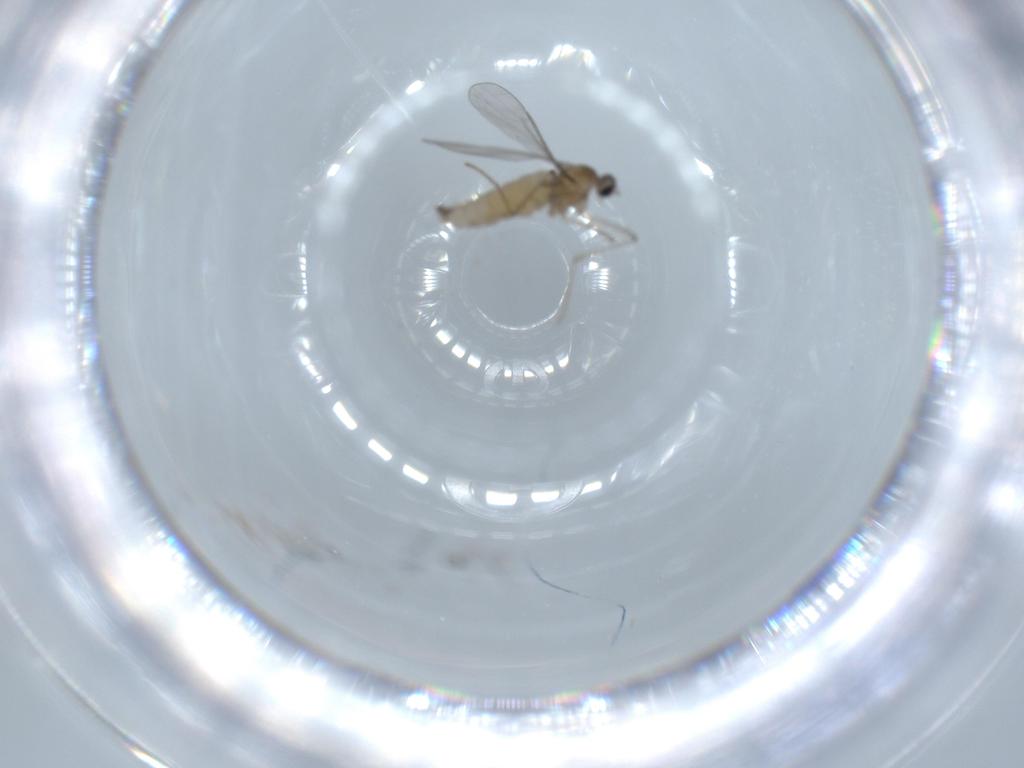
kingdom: Animalia
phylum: Arthropoda
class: Insecta
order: Diptera
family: Cecidomyiidae
